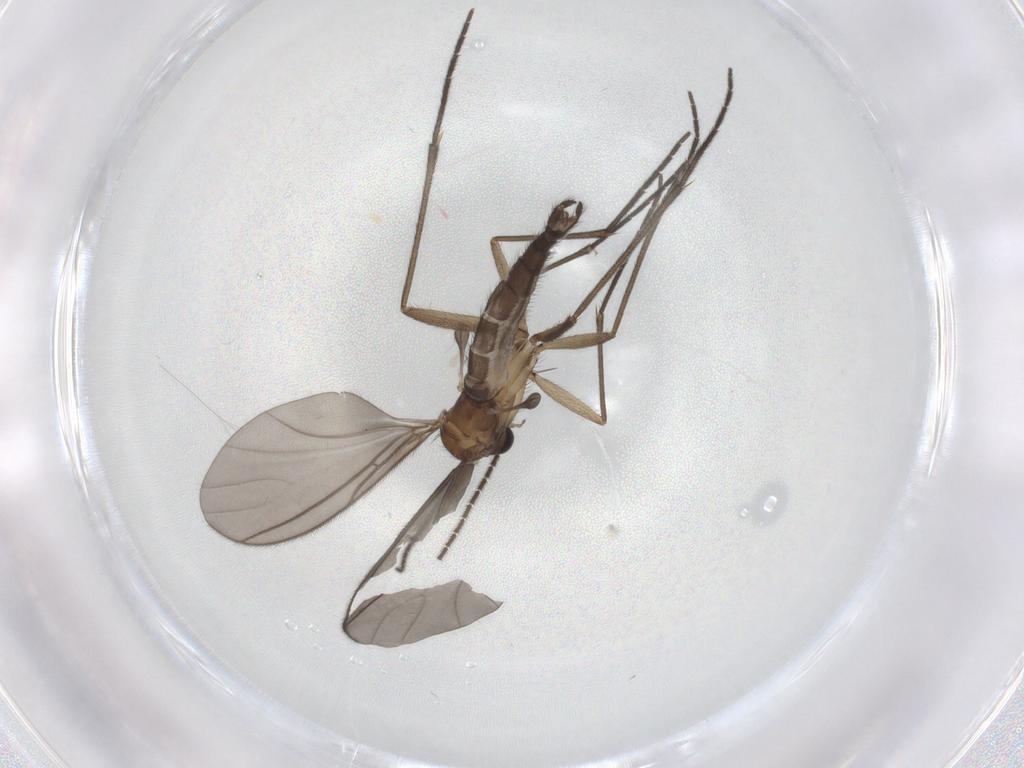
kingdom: Animalia
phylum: Arthropoda
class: Insecta
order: Diptera
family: Sciaridae
